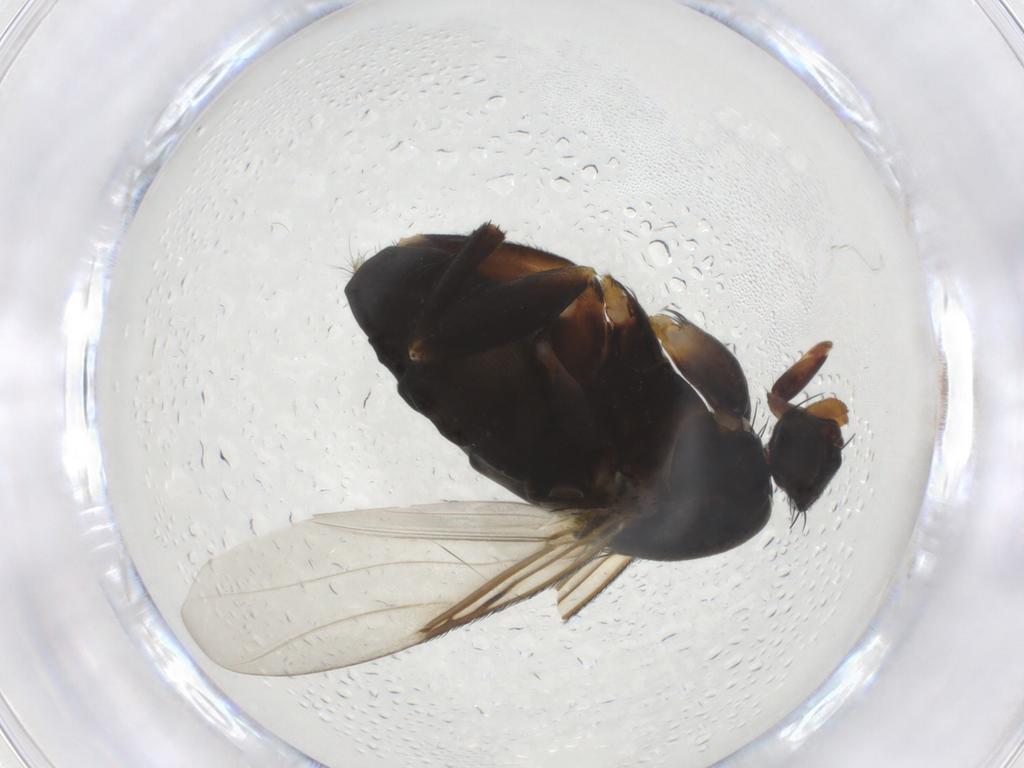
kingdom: Animalia
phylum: Arthropoda
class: Insecta
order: Diptera
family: Phoridae
